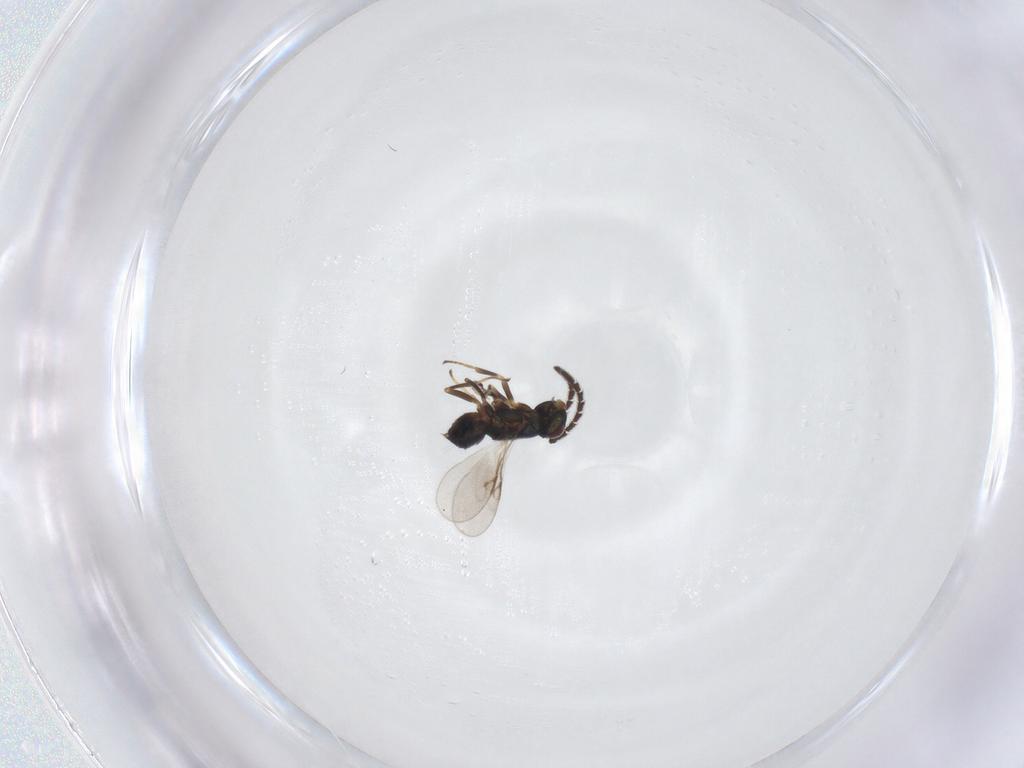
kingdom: Animalia
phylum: Arthropoda
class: Insecta
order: Hymenoptera
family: Encyrtidae
